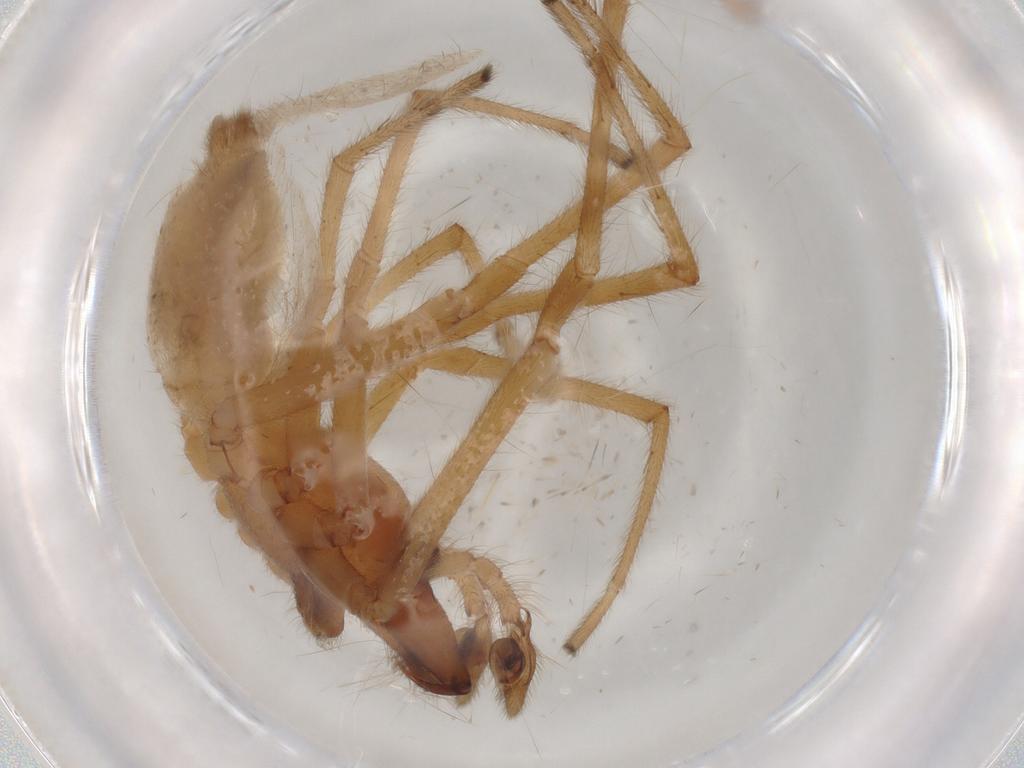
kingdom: Animalia
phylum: Arthropoda
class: Arachnida
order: Araneae
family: Cheiracanthiidae
